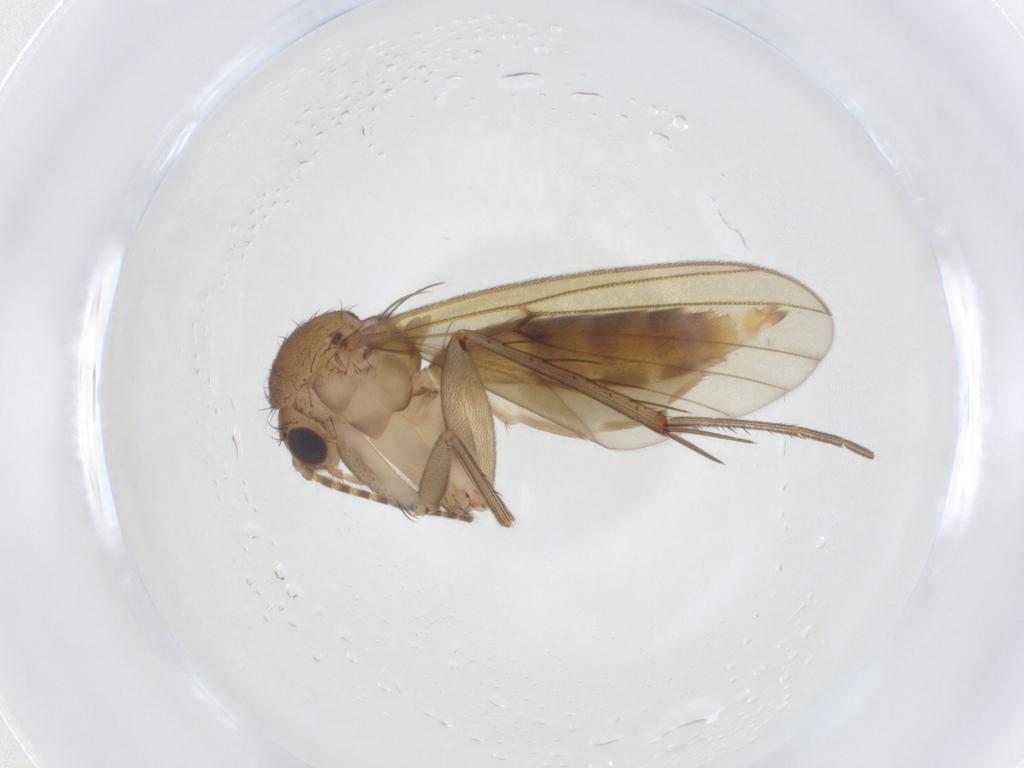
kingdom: Animalia
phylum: Arthropoda
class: Insecta
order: Diptera
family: Mycetophilidae
